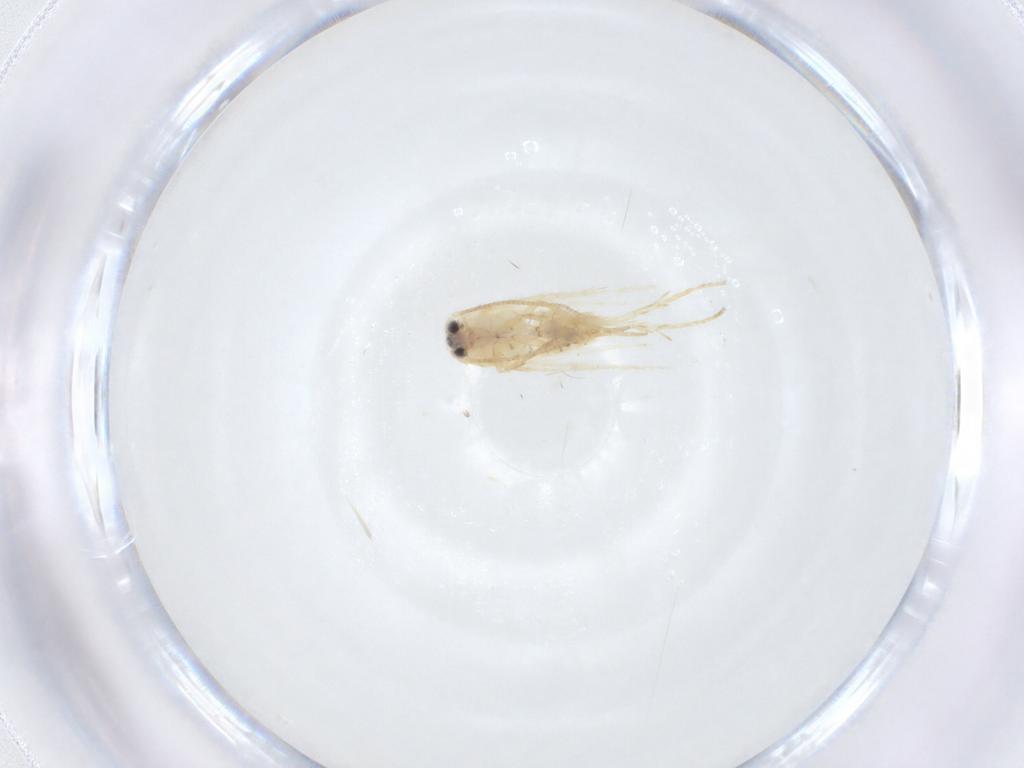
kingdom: Animalia
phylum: Arthropoda
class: Insecta
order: Lepidoptera
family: Nepticulidae
